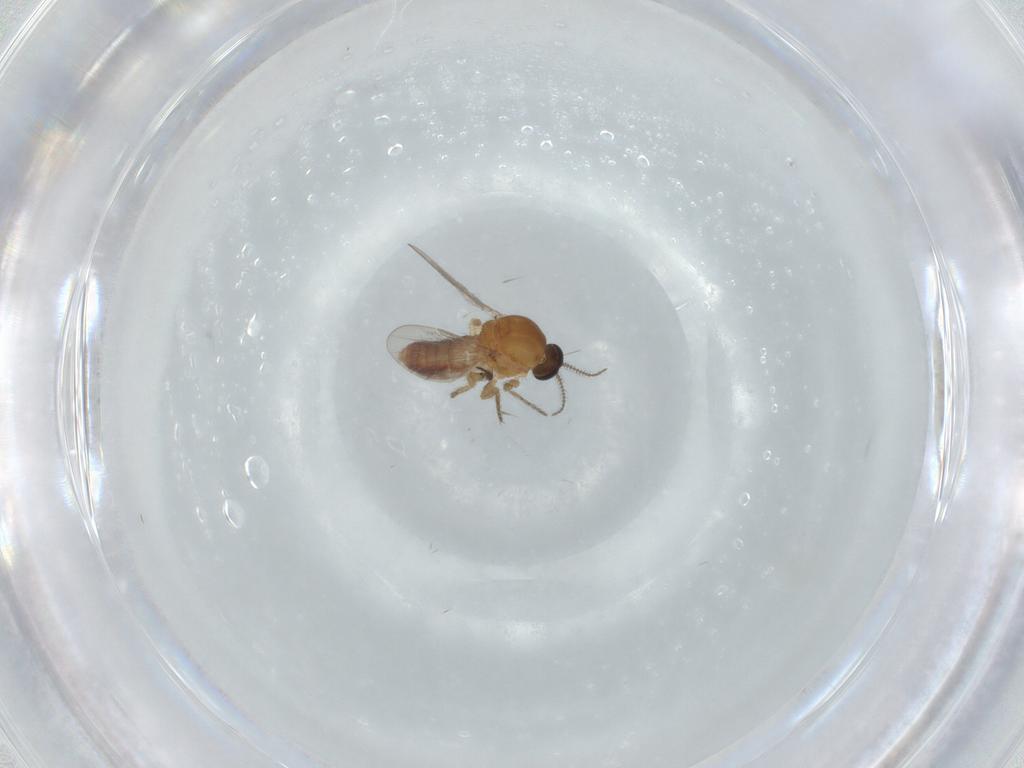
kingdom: Animalia
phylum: Arthropoda
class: Insecta
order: Diptera
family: Ceratopogonidae
